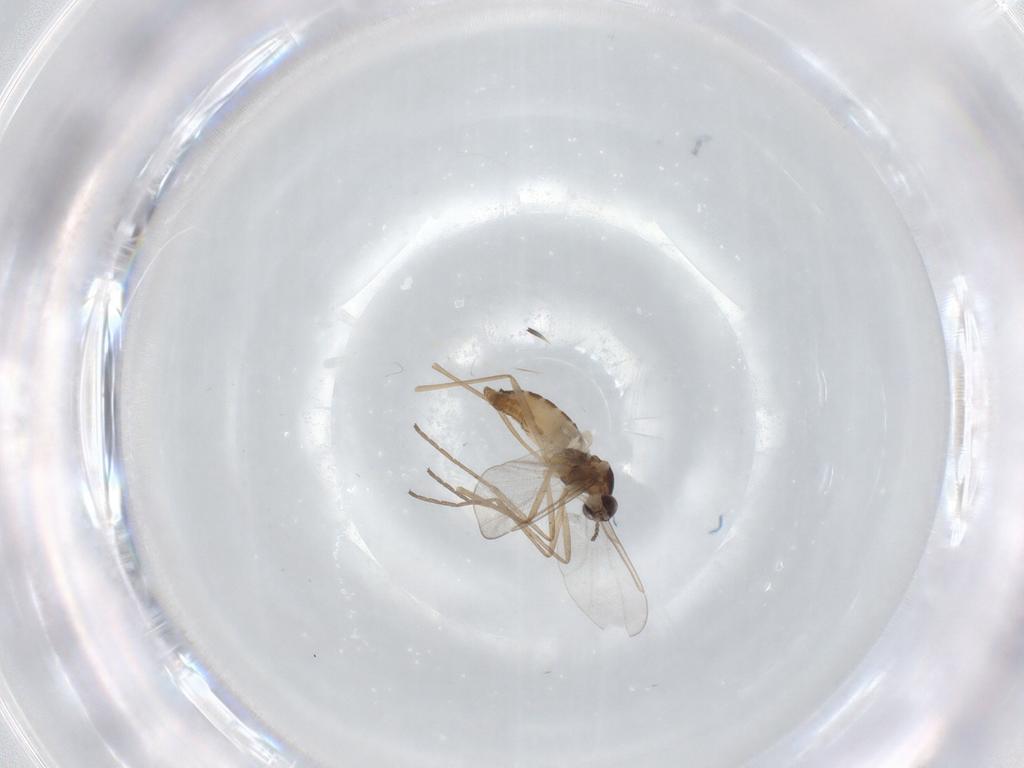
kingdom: Animalia
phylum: Arthropoda
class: Insecta
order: Diptera
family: Cecidomyiidae
